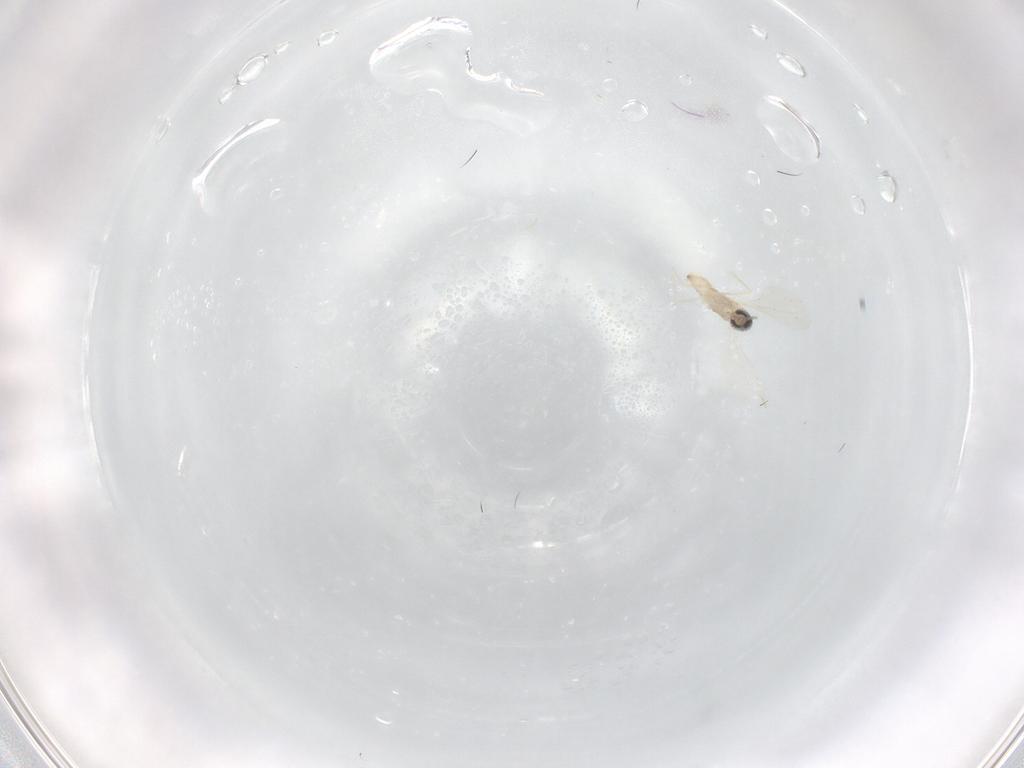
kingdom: Animalia
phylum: Arthropoda
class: Insecta
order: Diptera
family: Cecidomyiidae
